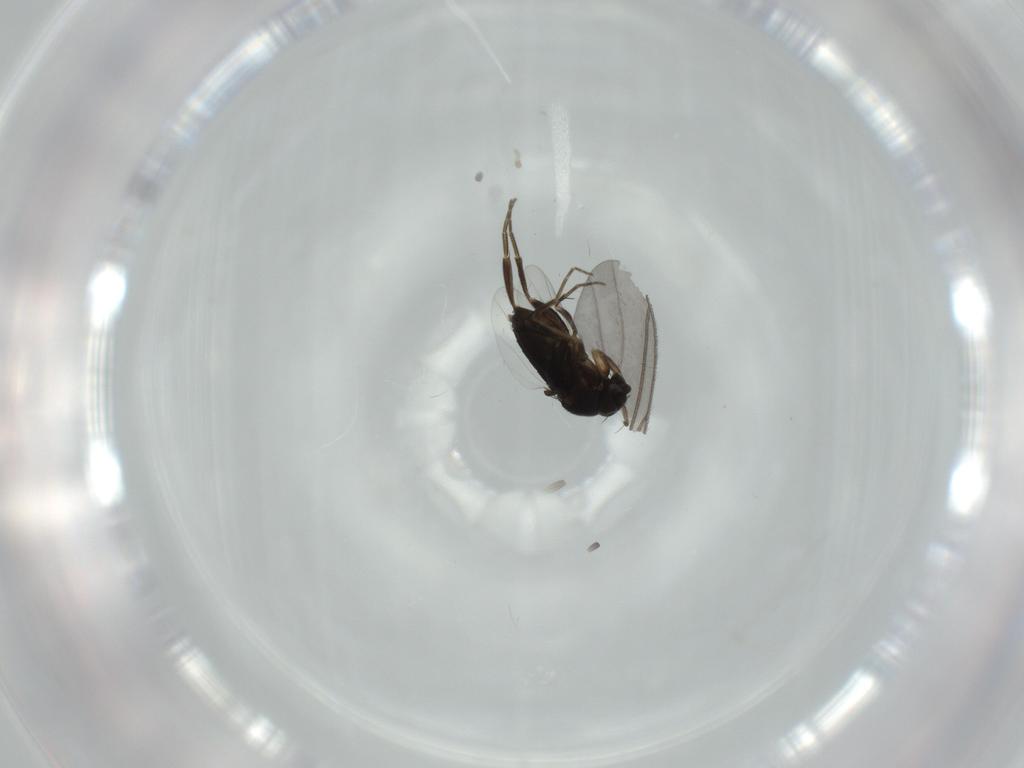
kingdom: Animalia
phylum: Arthropoda
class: Insecta
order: Diptera
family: Phoridae
